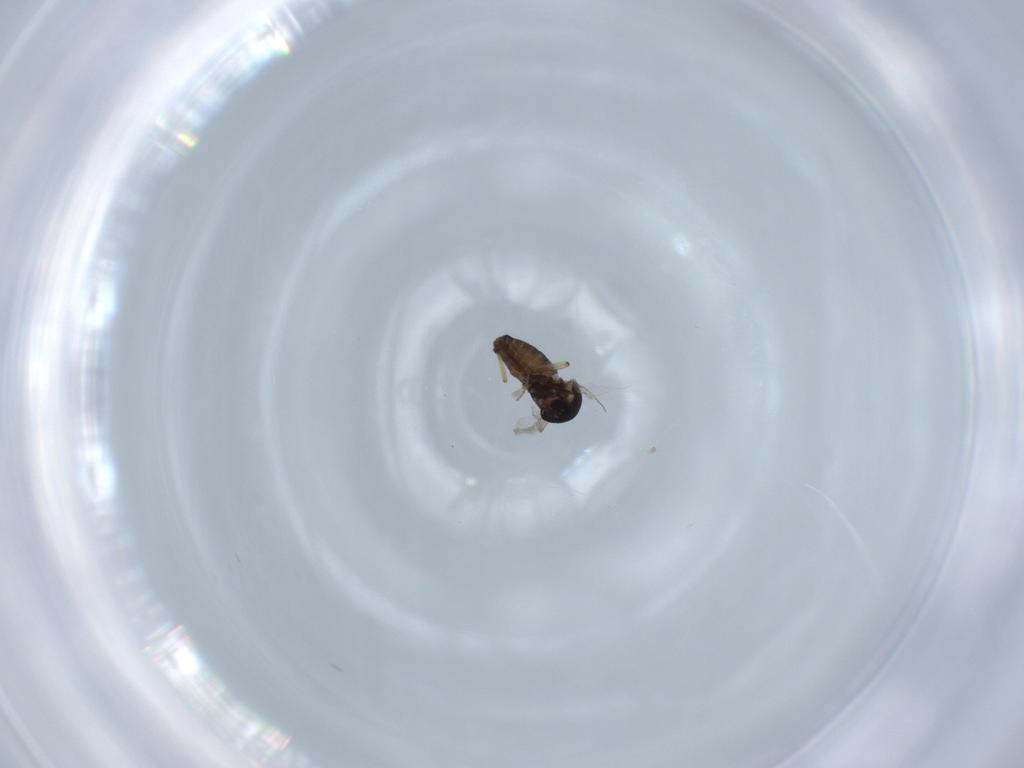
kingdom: Animalia
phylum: Arthropoda
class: Insecta
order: Diptera
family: Ceratopogonidae
